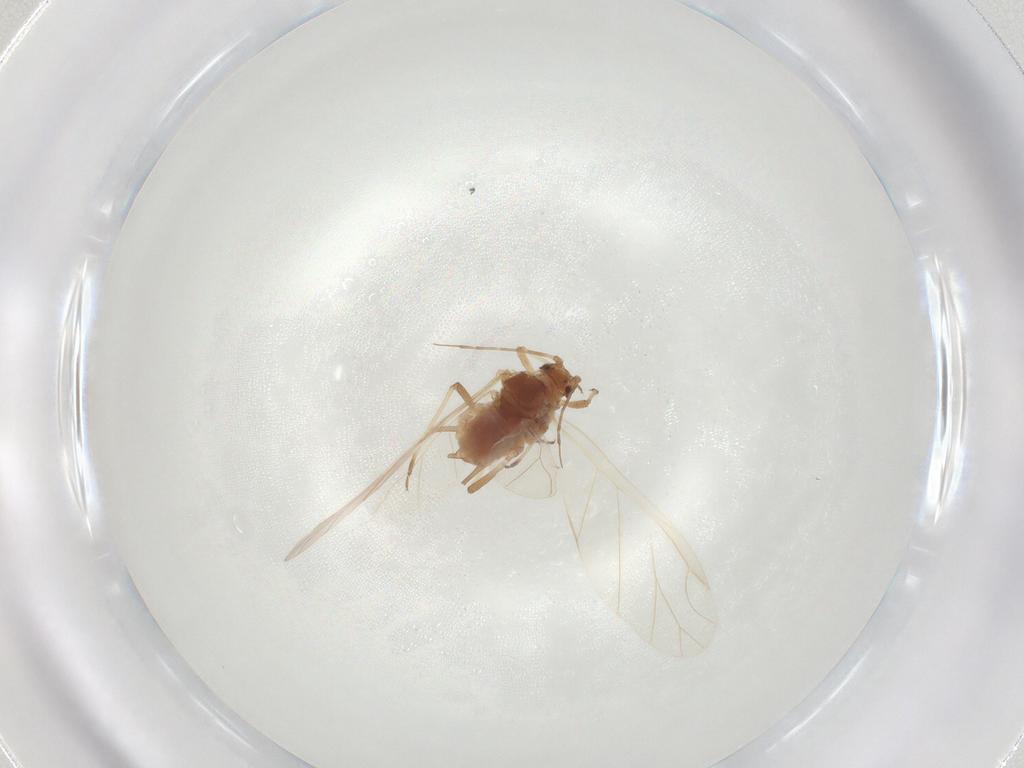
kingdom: Animalia
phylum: Arthropoda
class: Insecta
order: Hemiptera
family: Aphididae
